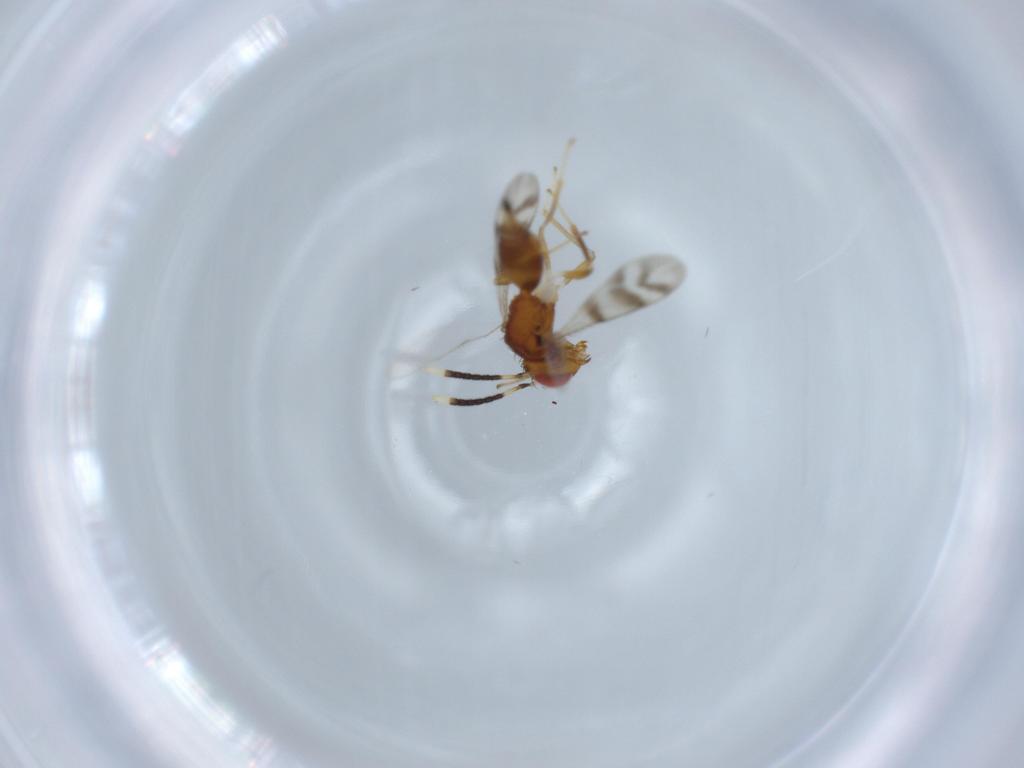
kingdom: Animalia
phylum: Arthropoda
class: Insecta
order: Hymenoptera
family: Diparidae
